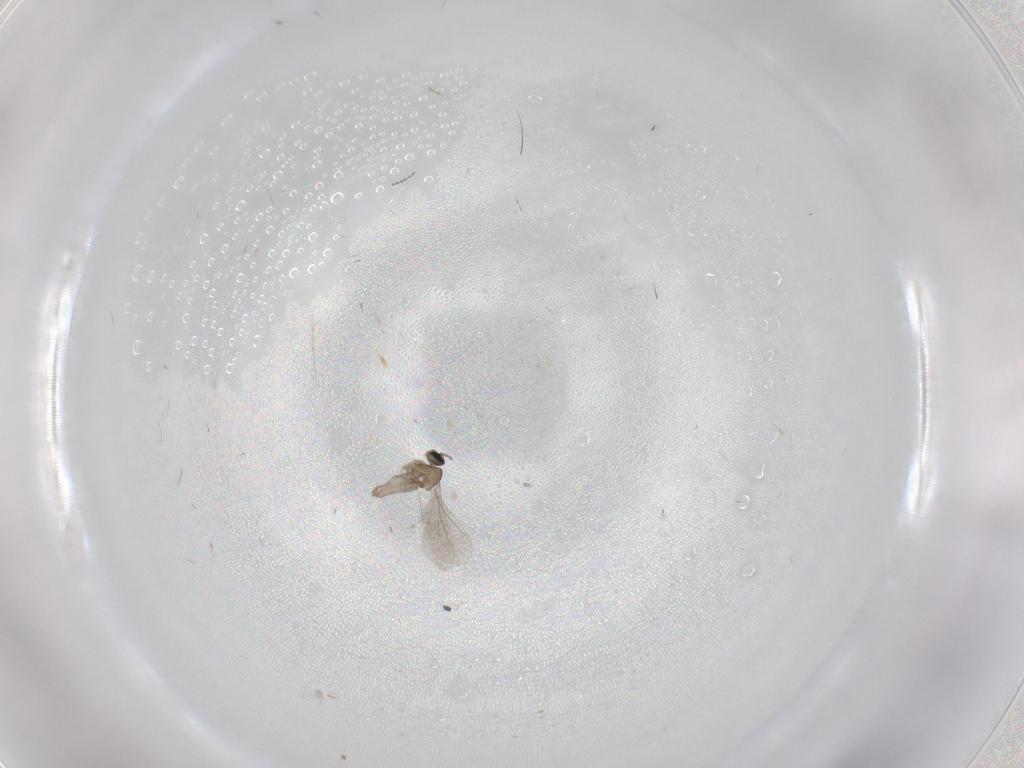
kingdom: Animalia
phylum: Arthropoda
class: Insecta
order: Diptera
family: Cecidomyiidae
